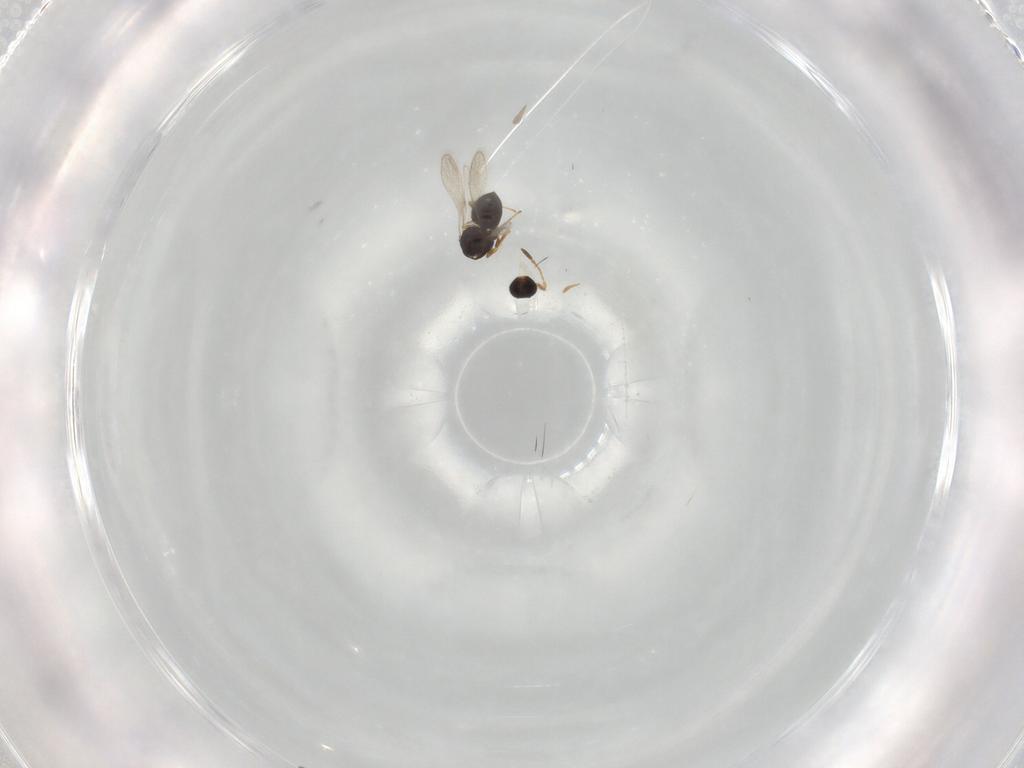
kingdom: Animalia
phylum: Arthropoda
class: Insecta
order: Hymenoptera
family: Platygastridae
